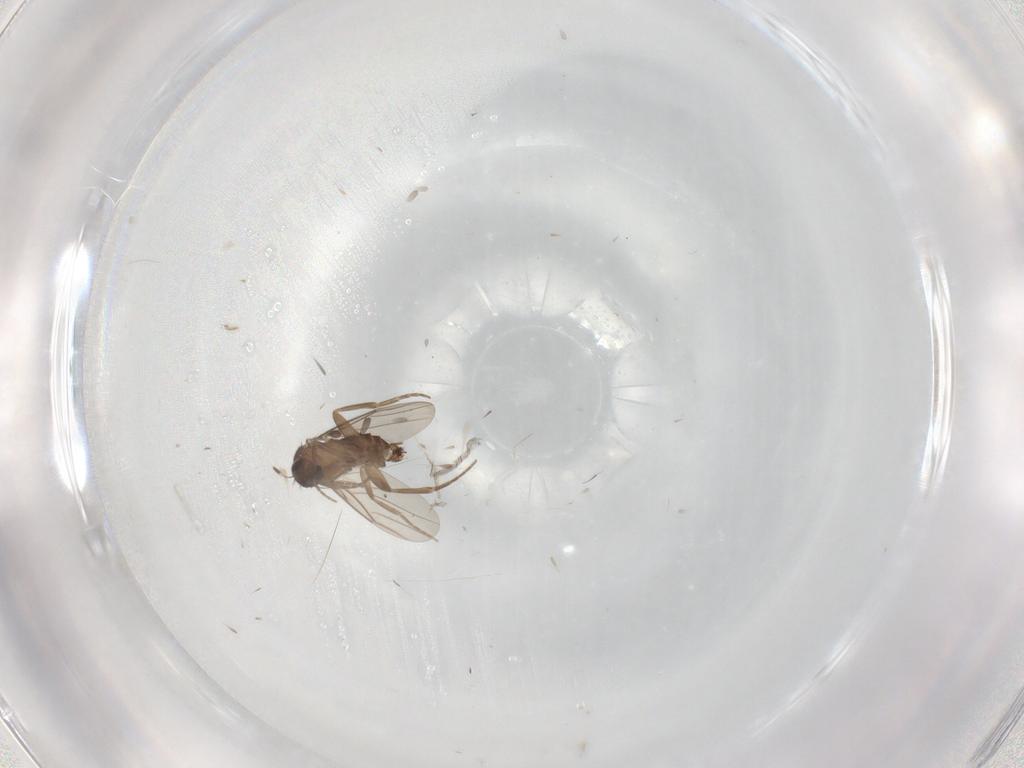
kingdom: Animalia
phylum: Arthropoda
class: Insecta
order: Diptera
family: Phoridae
